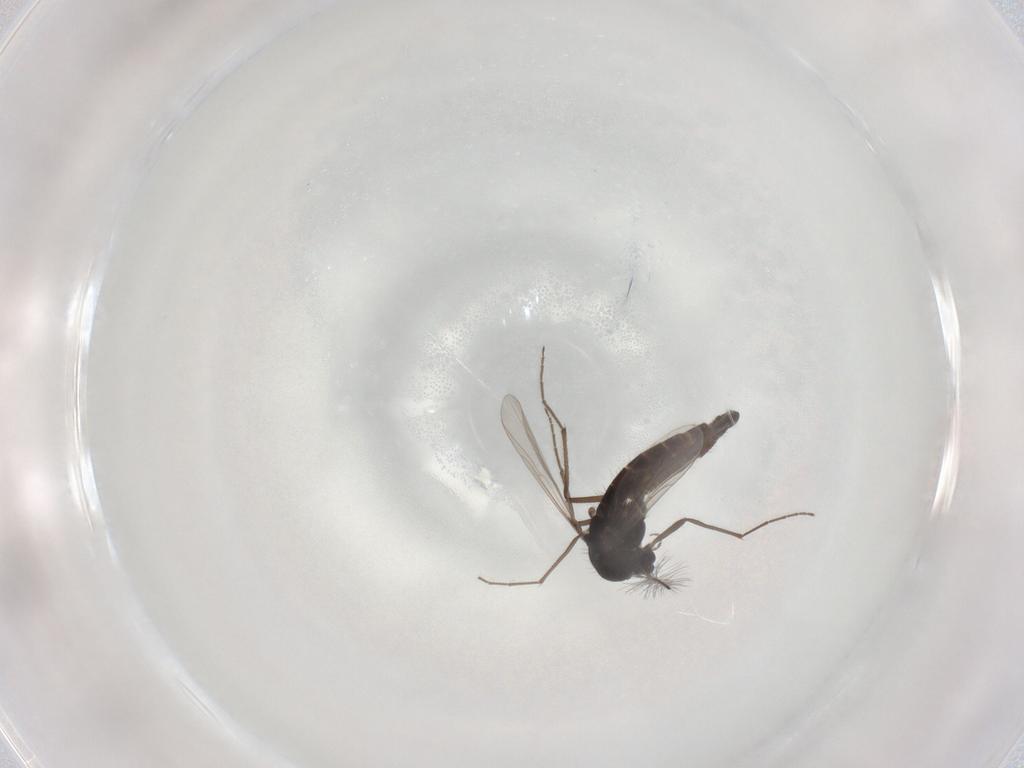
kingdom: Animalia
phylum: Arthropoda
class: Insecta
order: Diptera
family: Chironomidae
